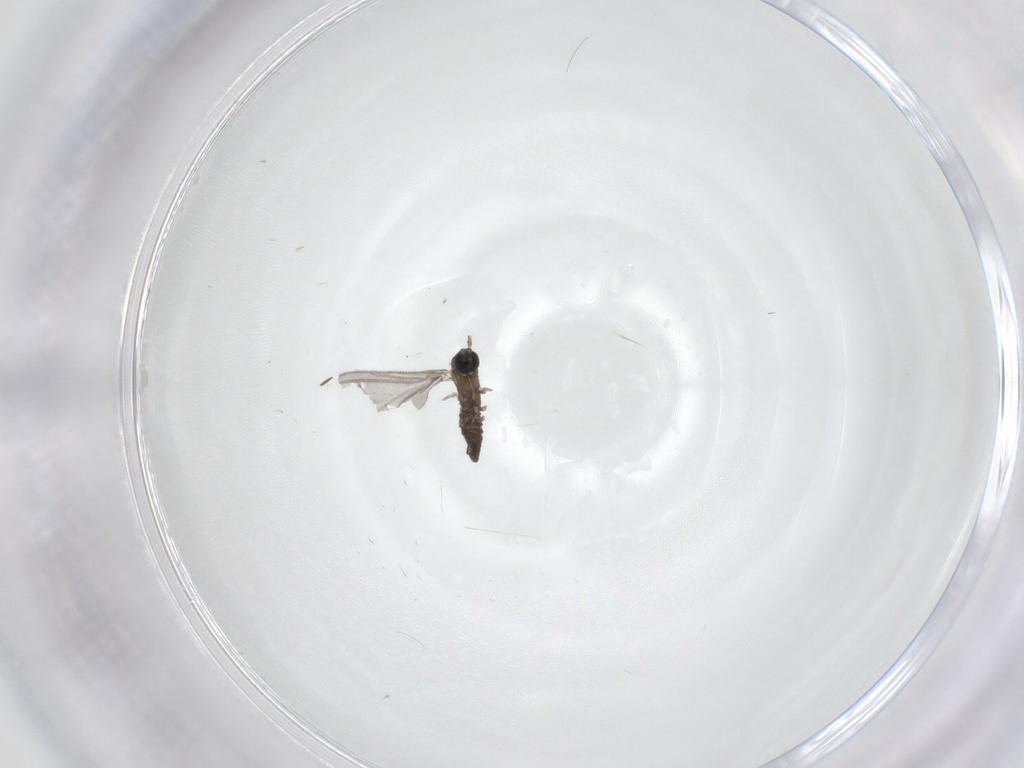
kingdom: Animalia
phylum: Arthropoda
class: Insecta
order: Diptera
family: Sciaridae
